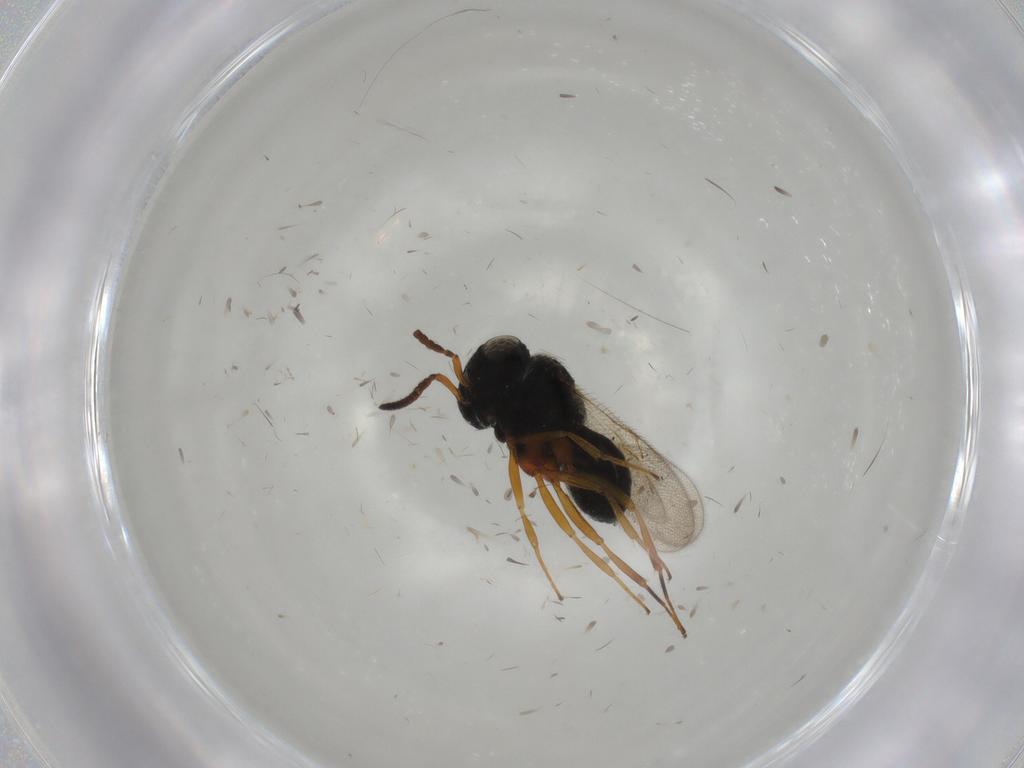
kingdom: Animalia
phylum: Arthropoda
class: Insecta
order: Hymenoptera
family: Scelionidae
